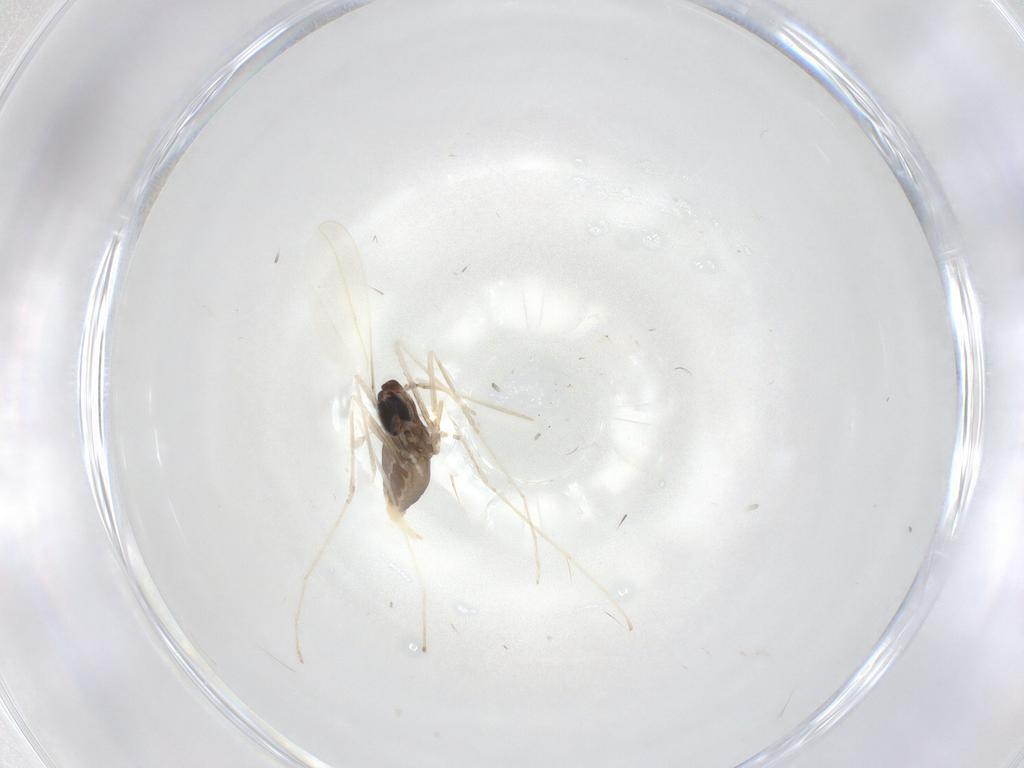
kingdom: Animalia
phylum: Arthropoda
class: Insecta
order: Diptera
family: Cecidomyiidae
